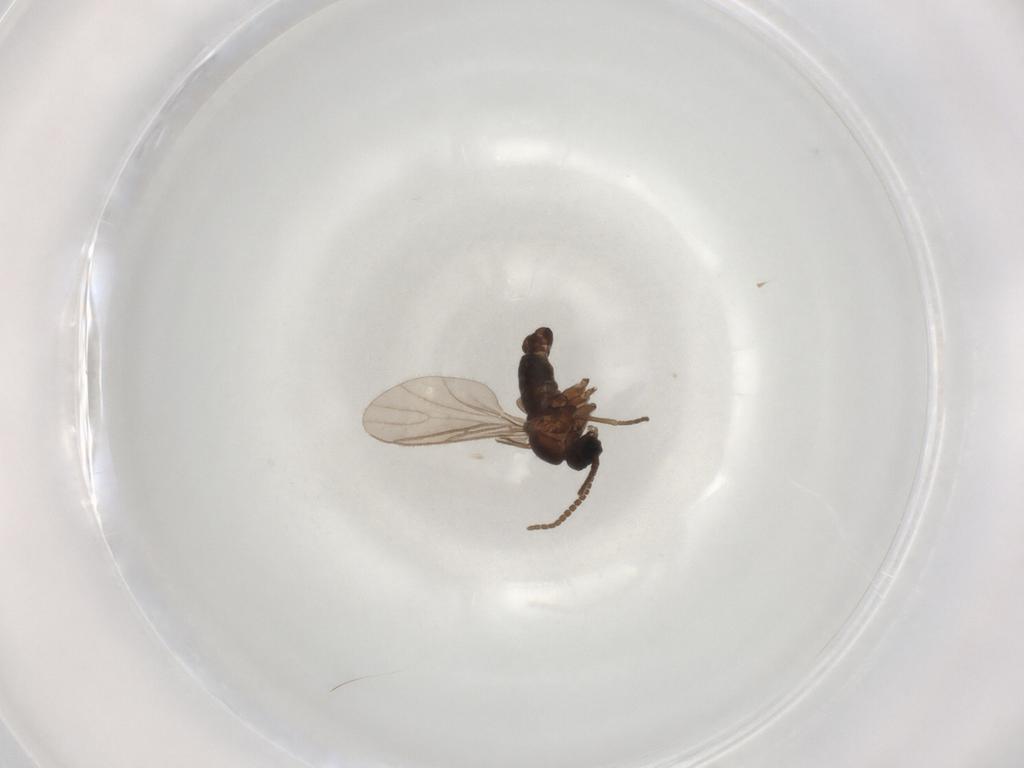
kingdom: Animalia
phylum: Arthropoda
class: Insecta
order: Diptera
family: Sciaridae
